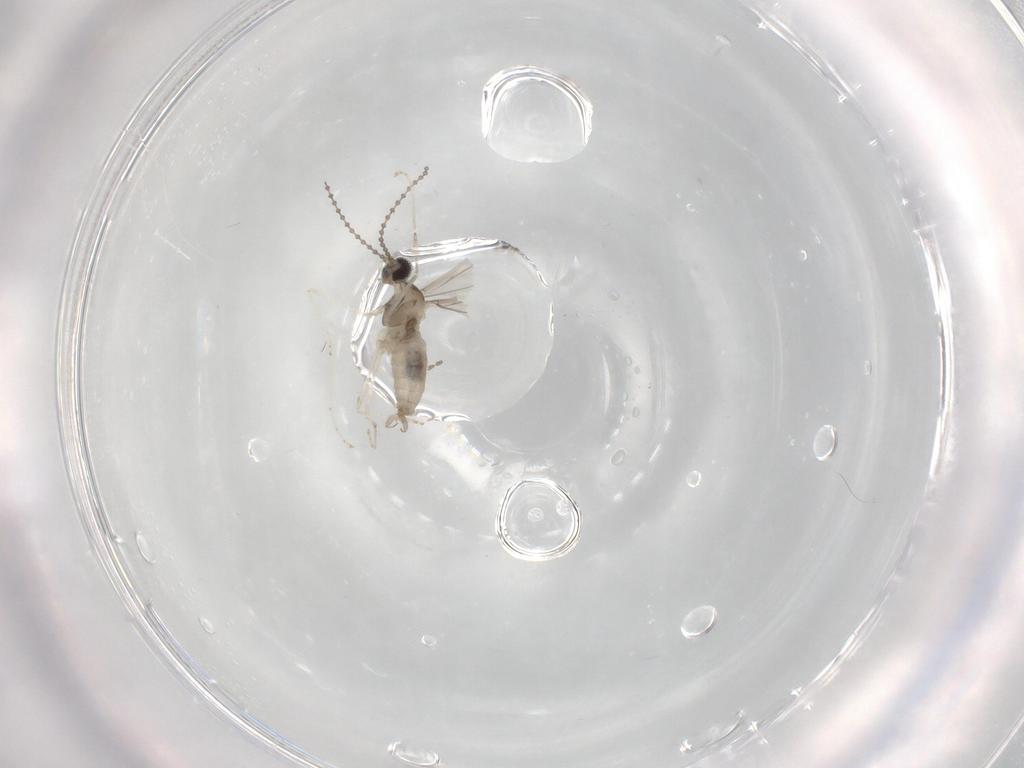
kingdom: Animalia
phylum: Arthropoda
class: Insecta
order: Diptera
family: Cecidomyiidae
